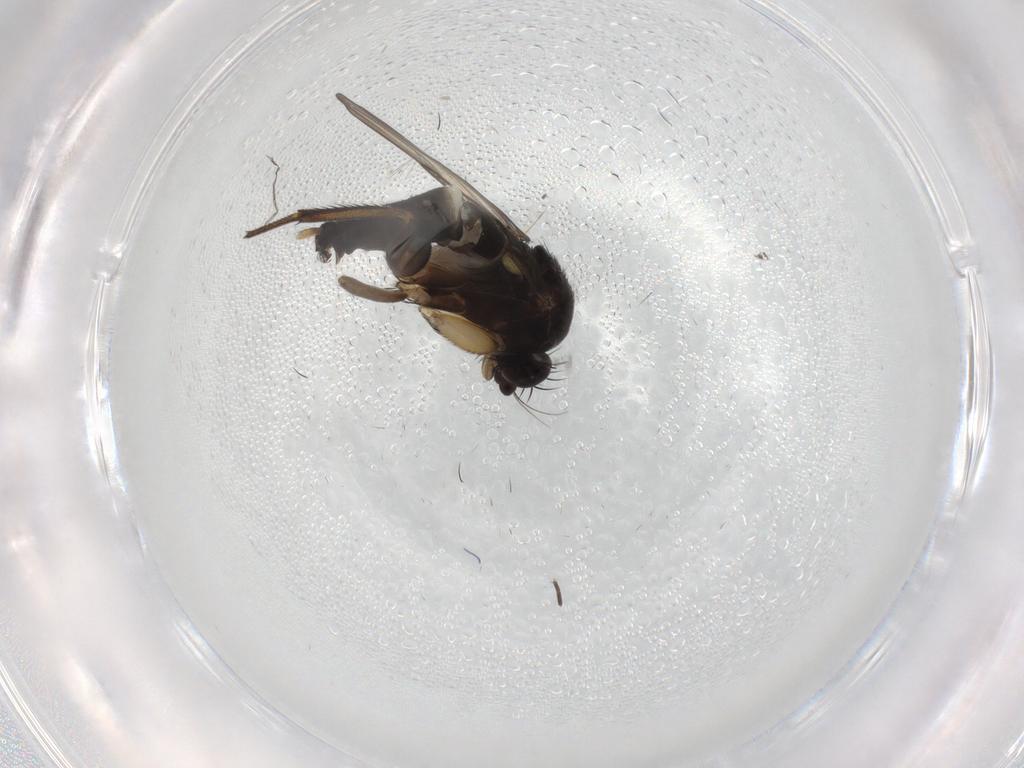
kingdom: Animalia
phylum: Arthropoda
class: Insecta
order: Diptera
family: Phoridae
